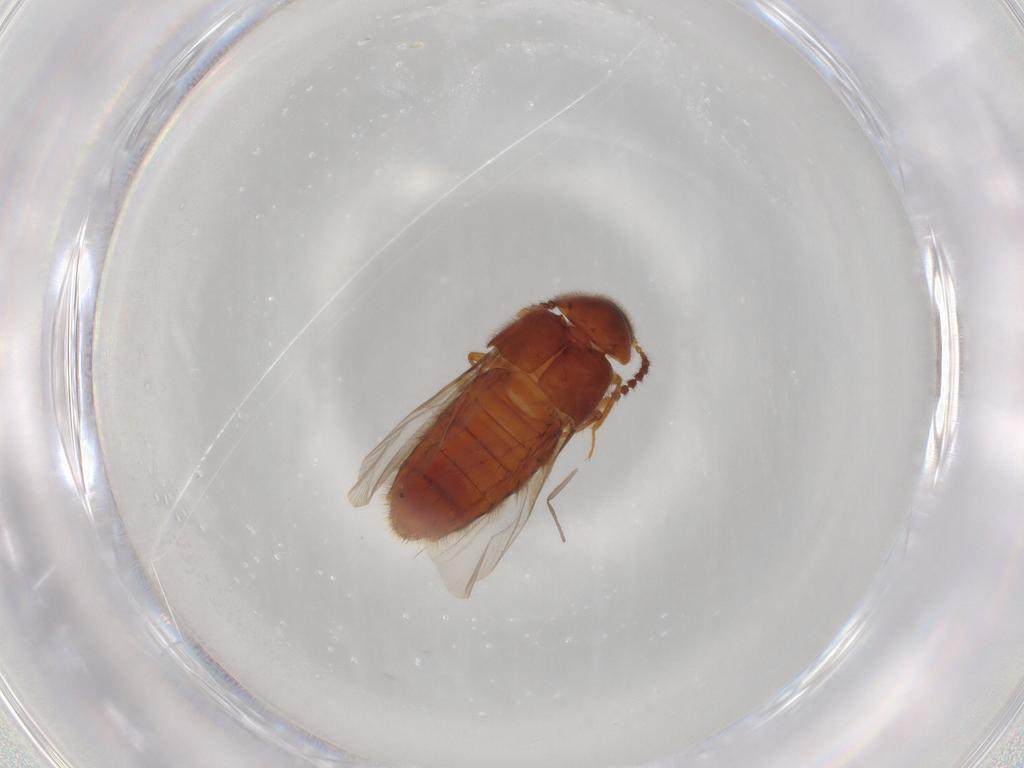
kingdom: Animalia
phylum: Arthropoda
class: Insecta
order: Coleoptera
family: Staphylinidae
